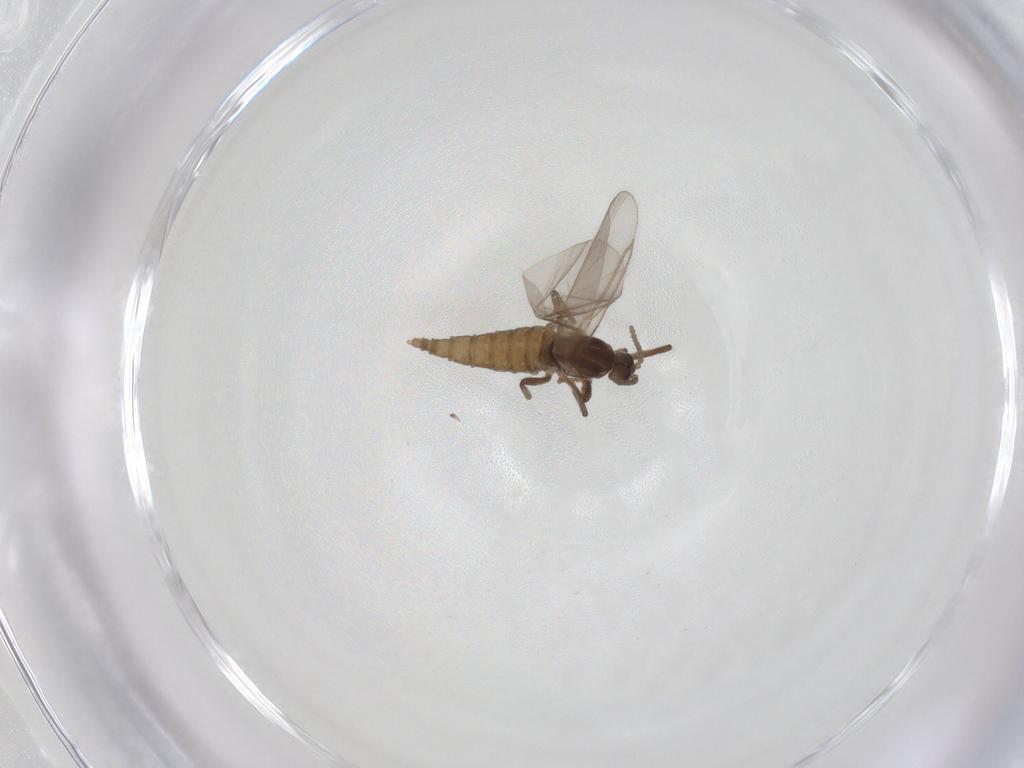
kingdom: Animalia
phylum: Arthropoda
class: Insecta
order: Diptera
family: Cecidomyiidae
